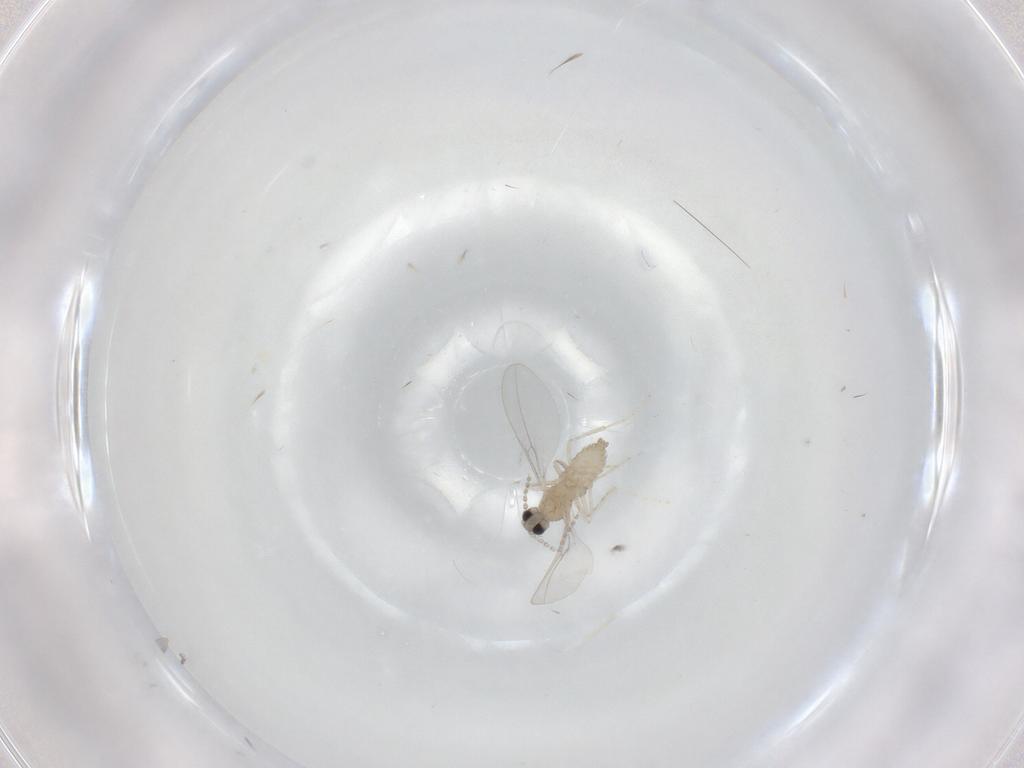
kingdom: Animalia
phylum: Arthropoda
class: Insecta
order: Diptera
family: Cecidomyiidae
